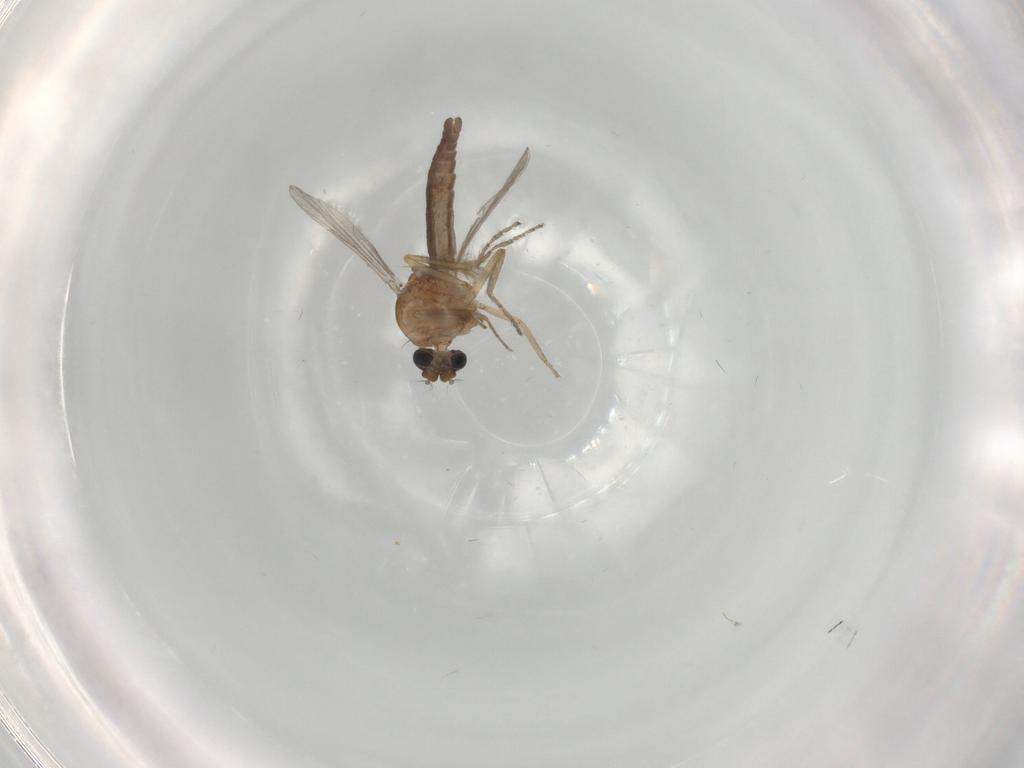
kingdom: Animalia
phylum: Arthropoda
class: Insecta
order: Diptera
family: Ceratopogonidae
